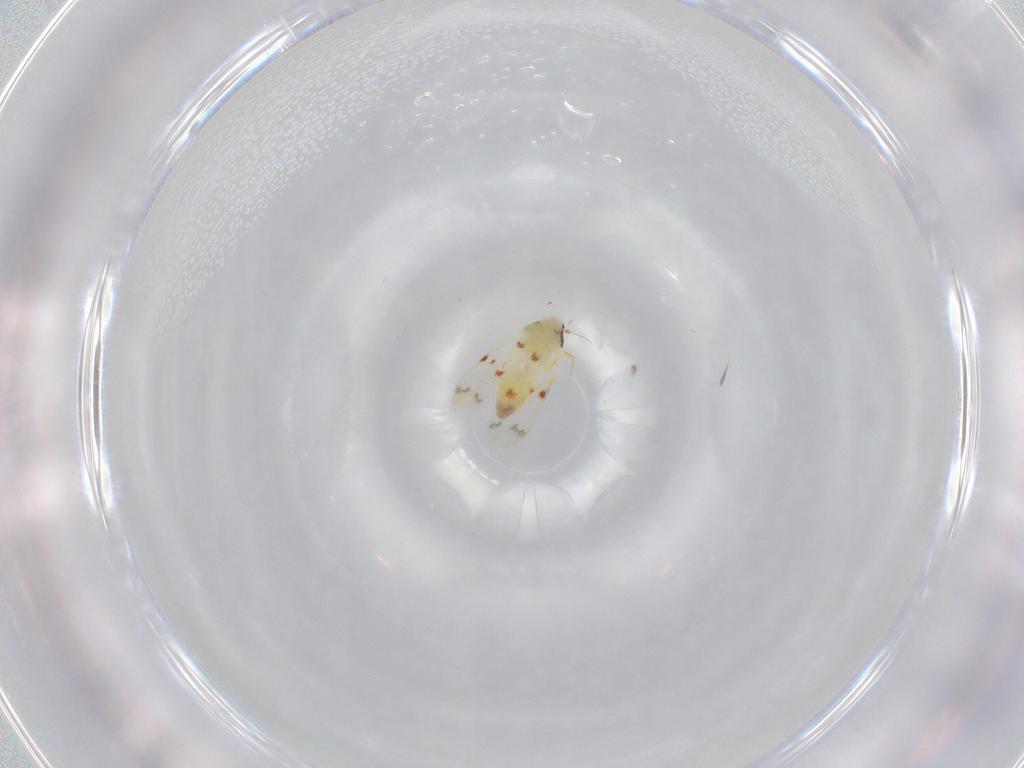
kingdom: Animalia
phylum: Arthropoda
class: Insecta
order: Hemiptera
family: Aleyrodidae
